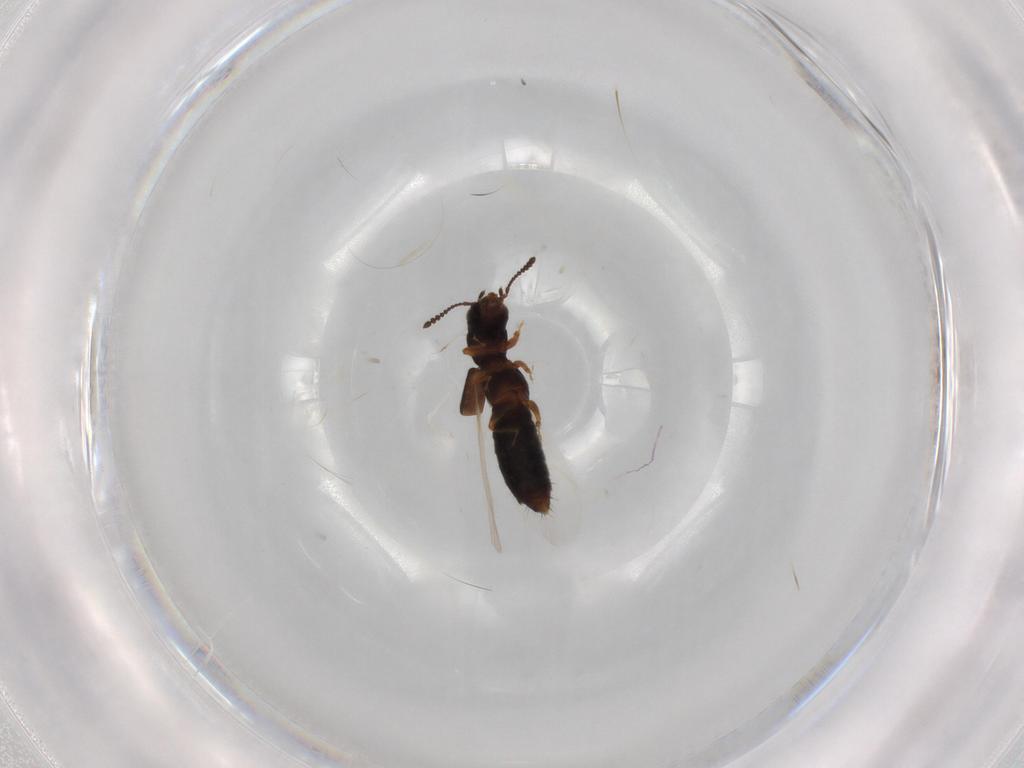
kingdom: Animalia
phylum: Arthropoda
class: Insecta
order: Coleoptera
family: Staphylinidae
